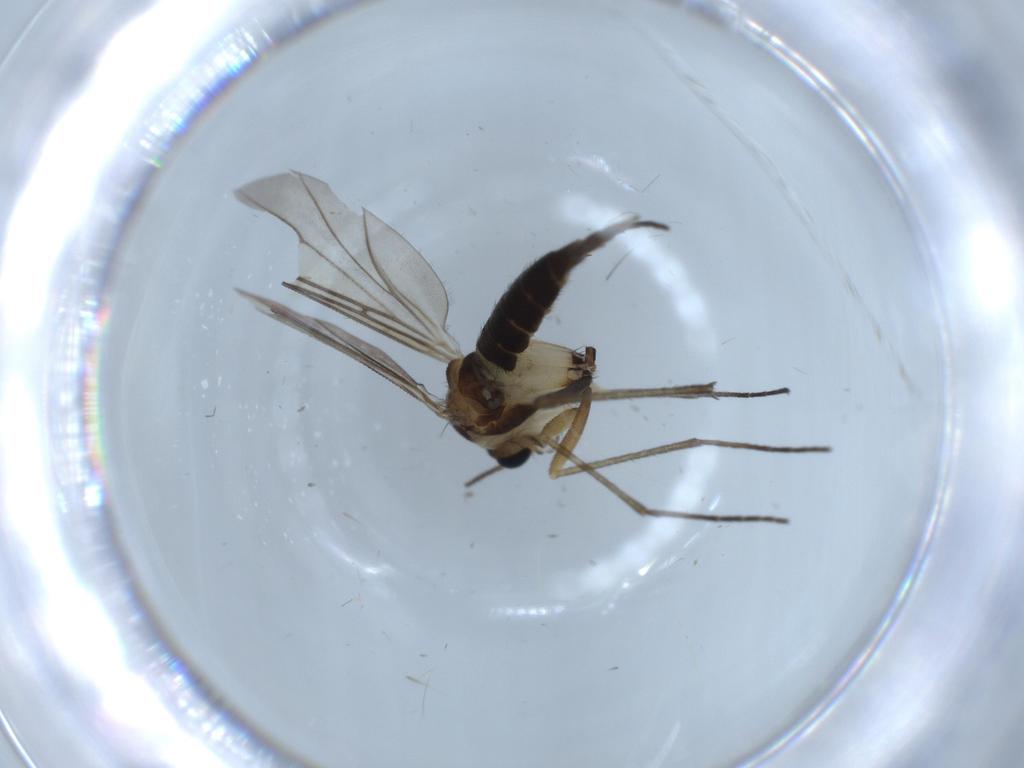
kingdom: Animalia
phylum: Arthropoda
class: Insecta
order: Diptera
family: Chironomidae
